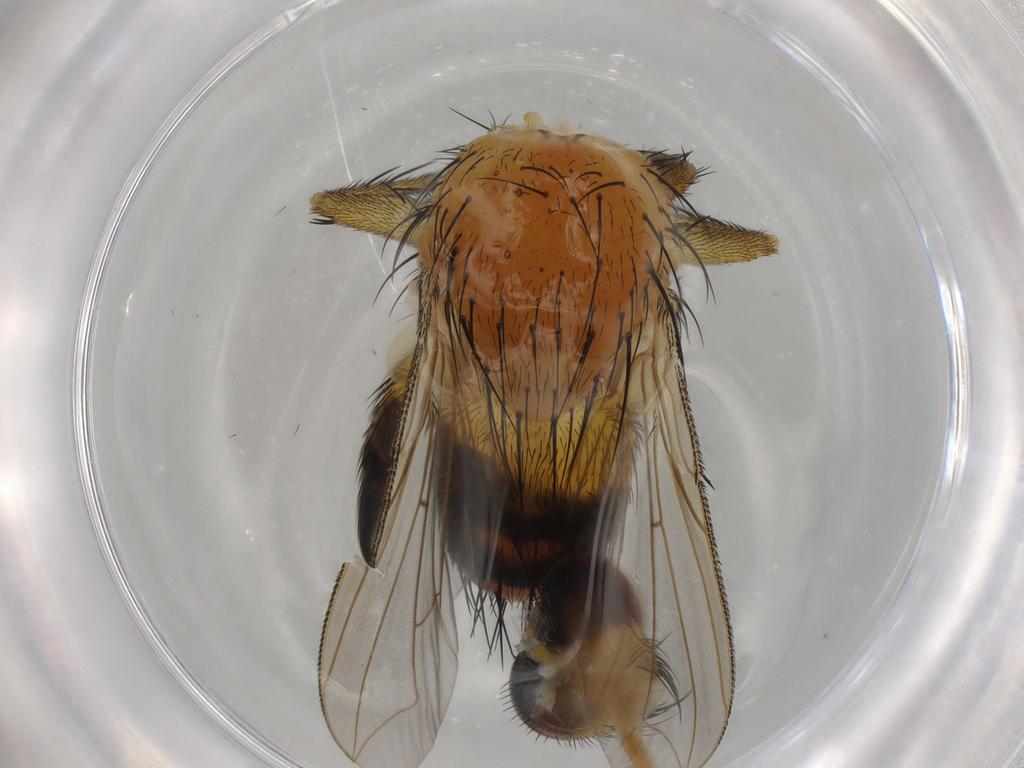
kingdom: Animalia
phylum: Arthropoda
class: Insecta
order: Diptera
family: Tachinidae
